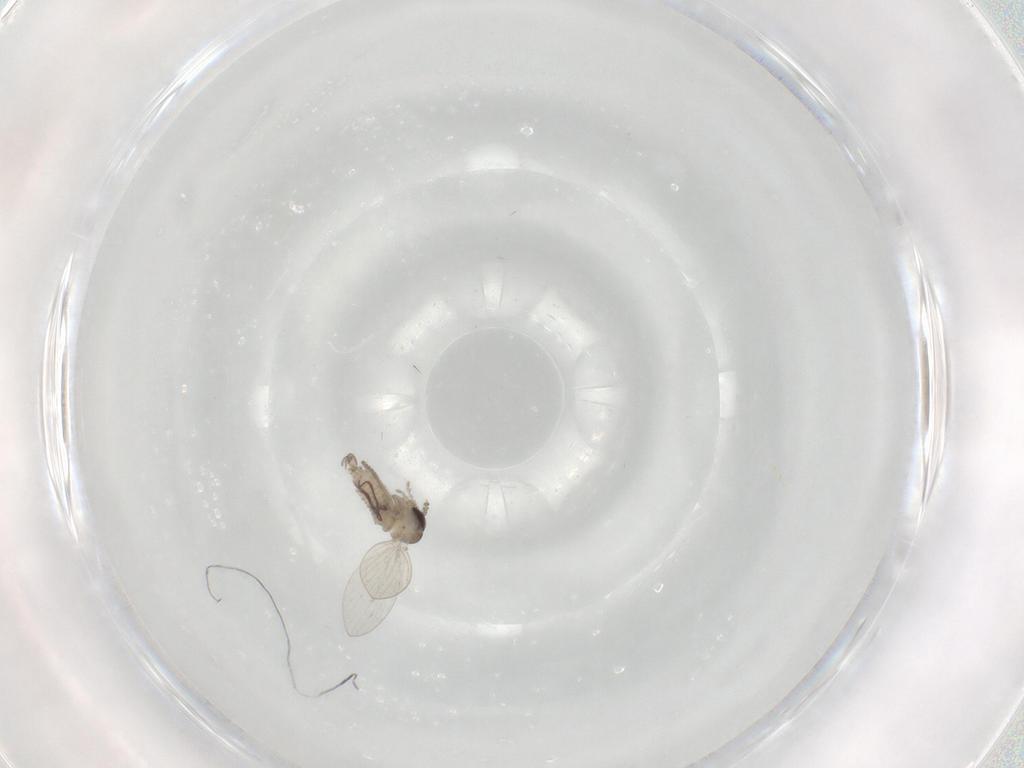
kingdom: Animalia
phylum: Arthropoda
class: Insecta
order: Diptera
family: Psychodidae
